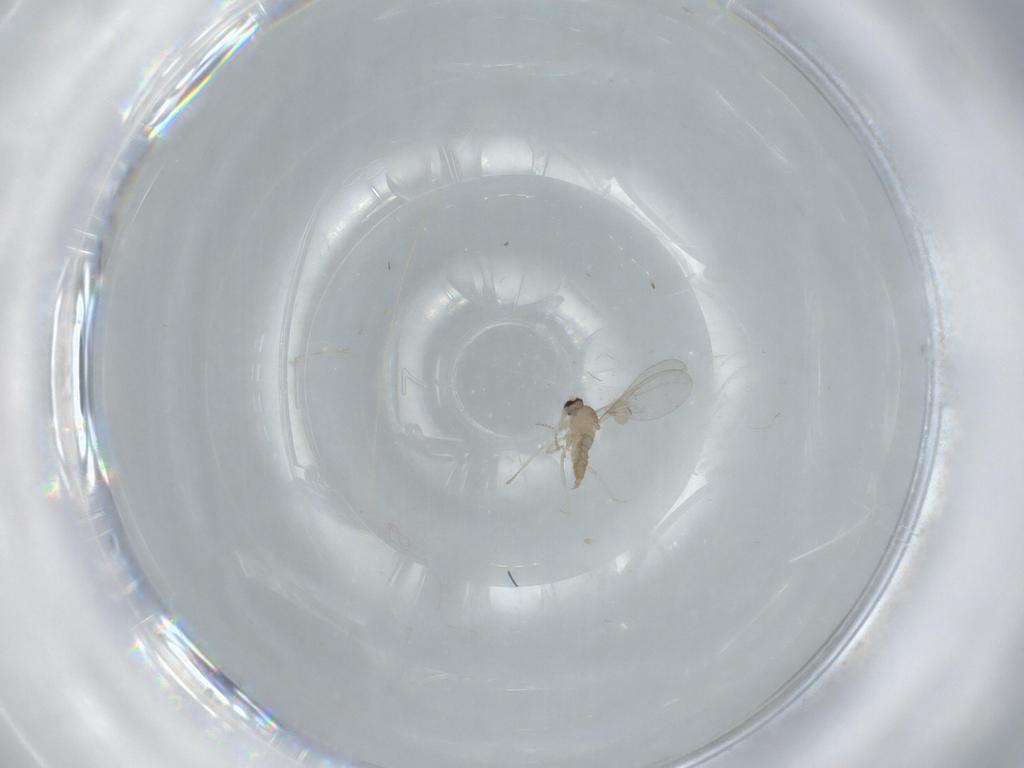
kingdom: Animalia
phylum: Arthropoda
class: Insecta
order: Diptera
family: Cecidomyiidae
